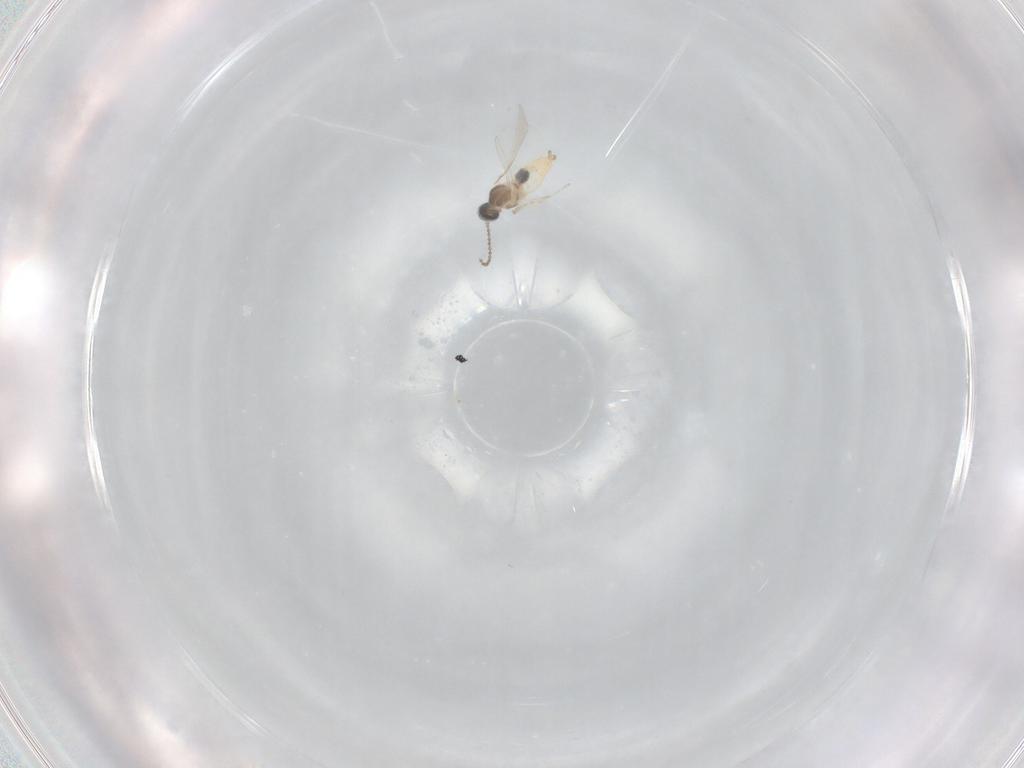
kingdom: Animalia
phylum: Arthropoda
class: Insecta
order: Diptera
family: Cecidomyiidae
